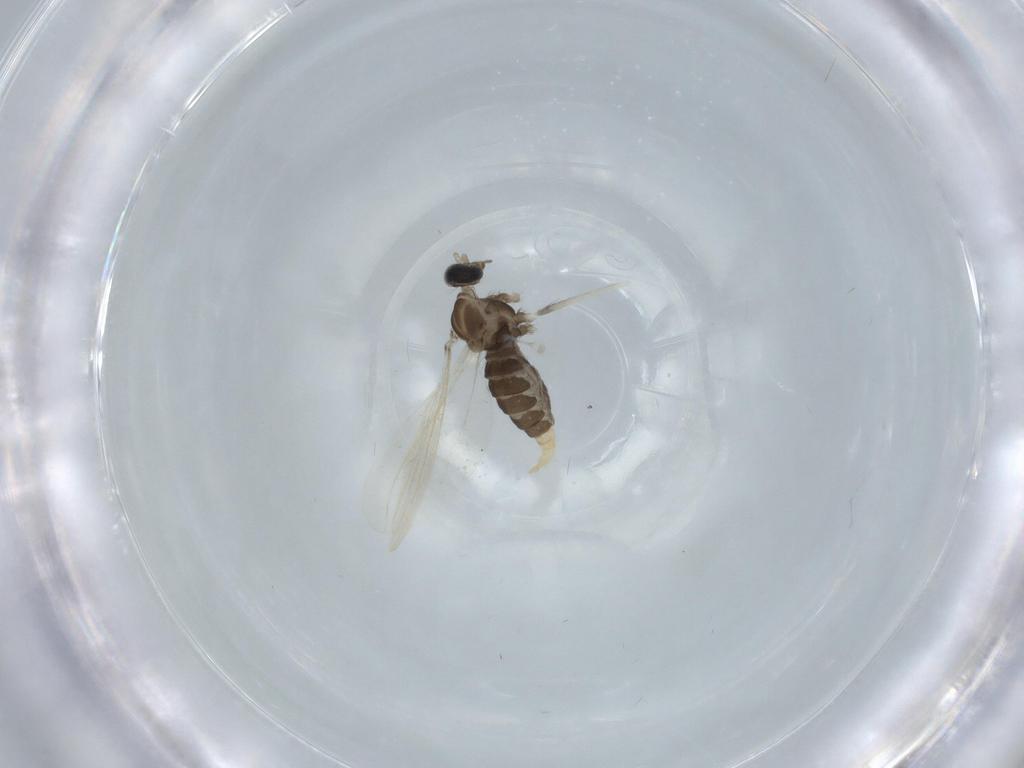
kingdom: Animalia
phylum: Arthropoda
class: Insecta
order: Diptera
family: Cecidomyiidae
